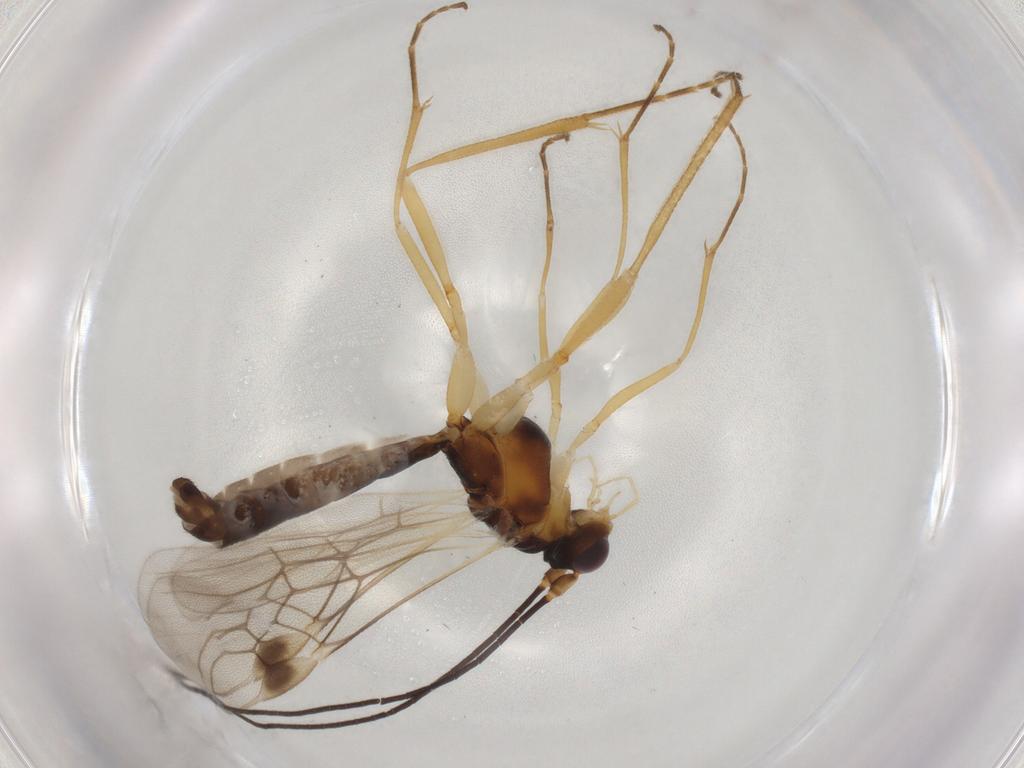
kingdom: Animalia
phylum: Arthropoda
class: Insecta
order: Hymenoptera
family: Braconidae
